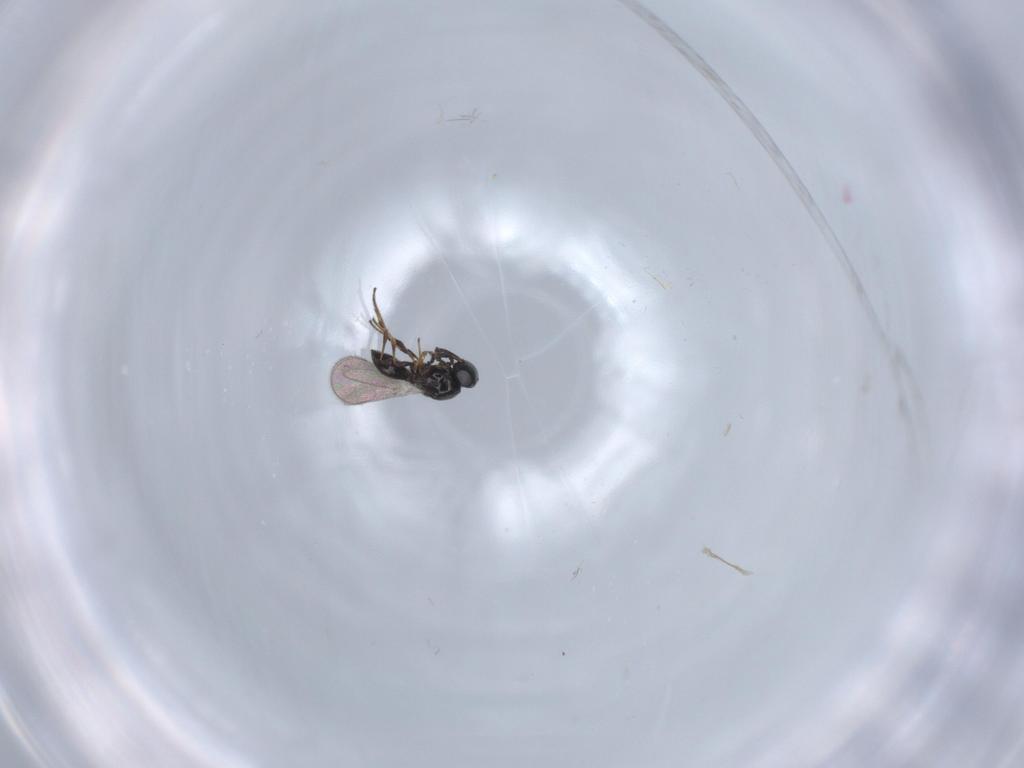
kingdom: Animalia
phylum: Arthropoda
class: Insecta
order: Hymenoptera
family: Platygastridae
